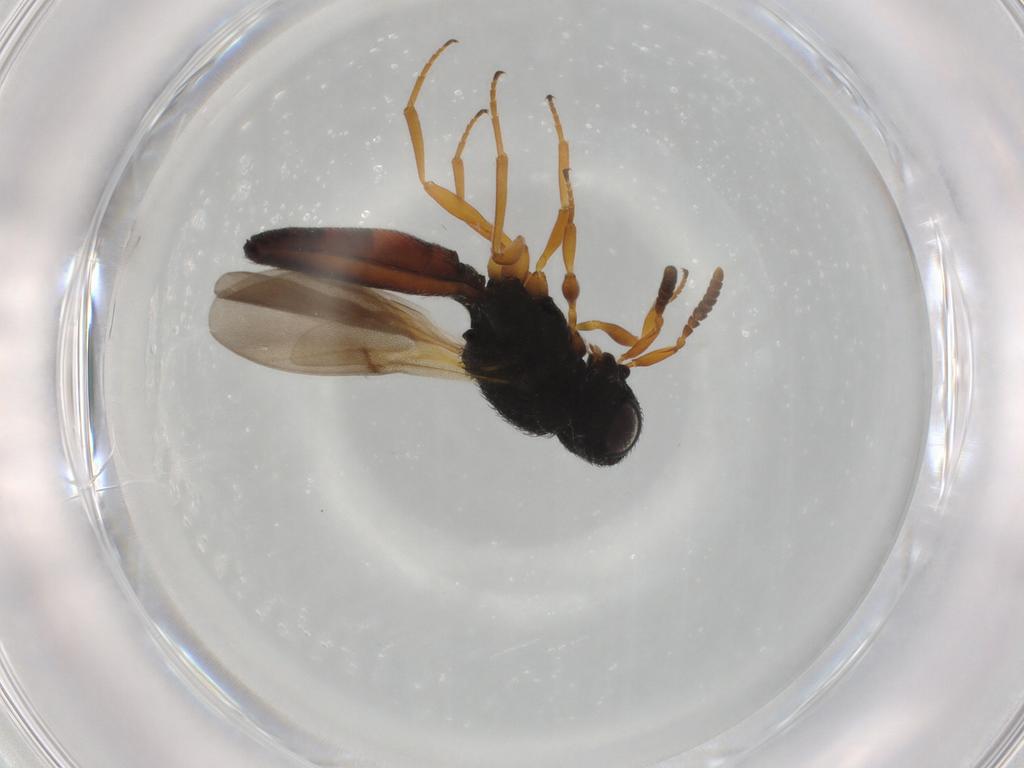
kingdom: Animalia
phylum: Arthropoda
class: Insecta
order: Hymenoptera
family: Scelionidae
